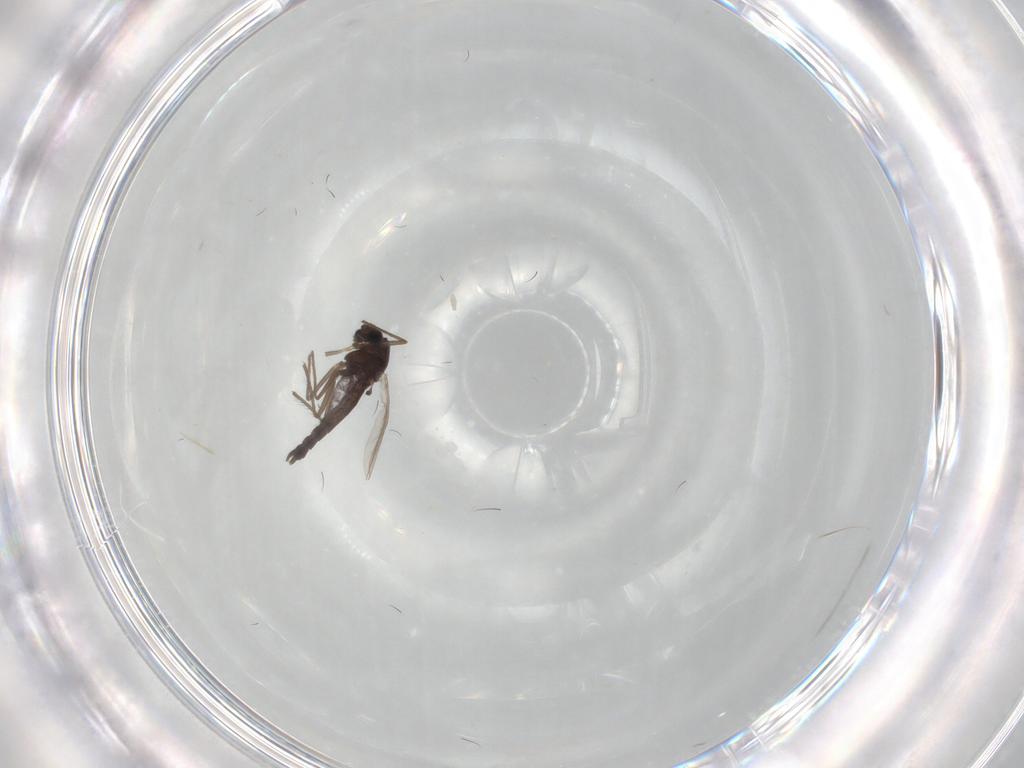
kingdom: Animalia
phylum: Arthropoda
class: Insecta
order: Diptera
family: Chironomidae
